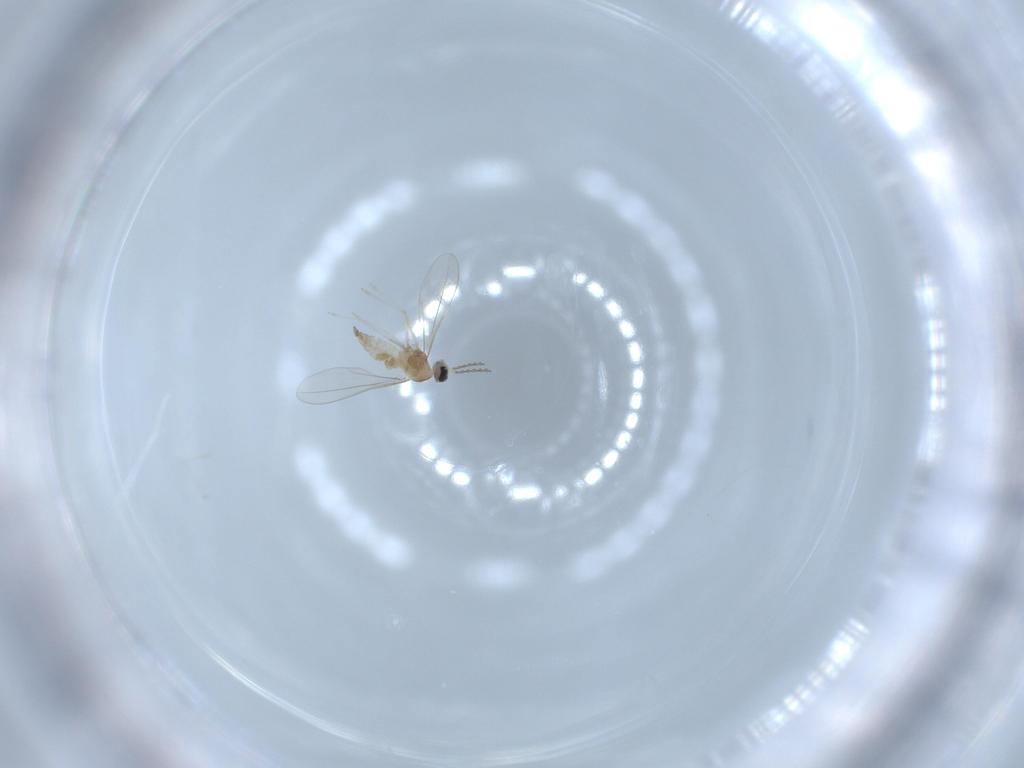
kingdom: Animalia
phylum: Arthropoda
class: Insecta
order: Diptera
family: Cecidomyiidae
